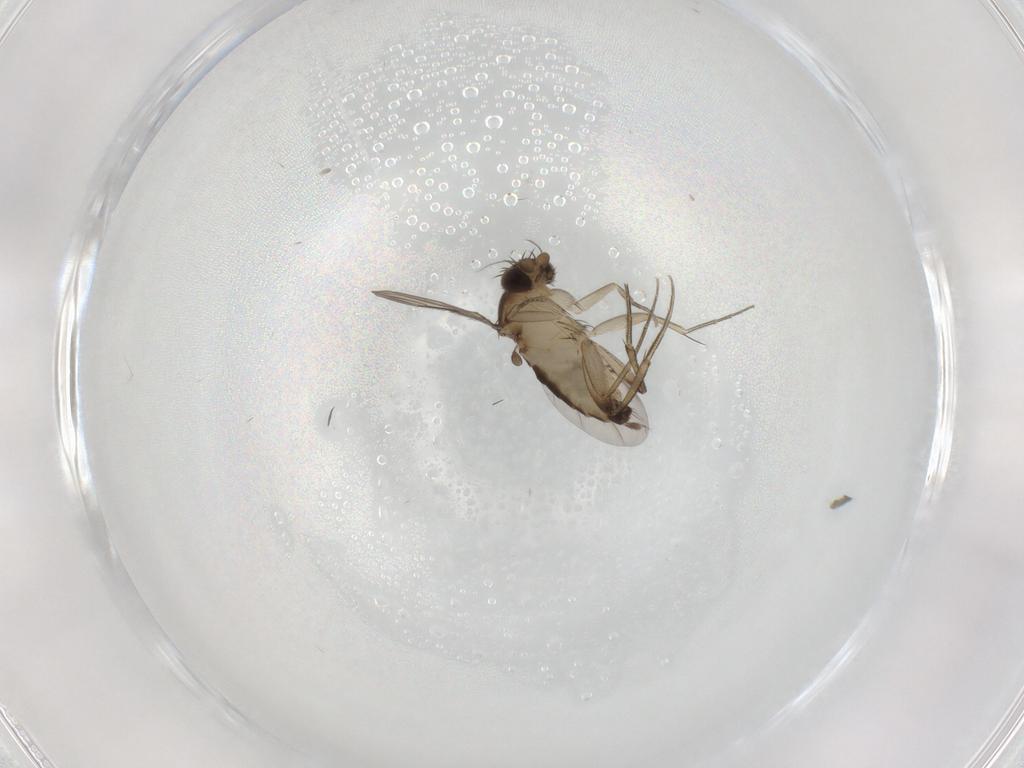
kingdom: Animalia
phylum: Arthropoda
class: Insecta
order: Diptera
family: Phoridae
